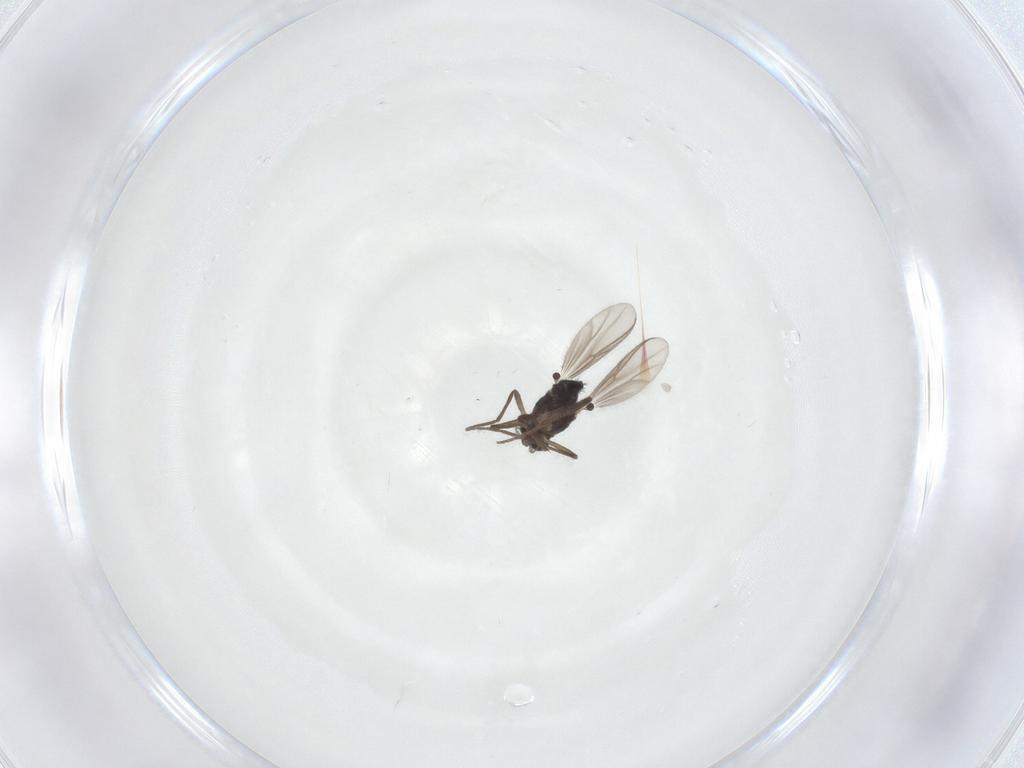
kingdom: Animalia
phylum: Arthropoda
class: Insecta
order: Diptera
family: Chironomidae
